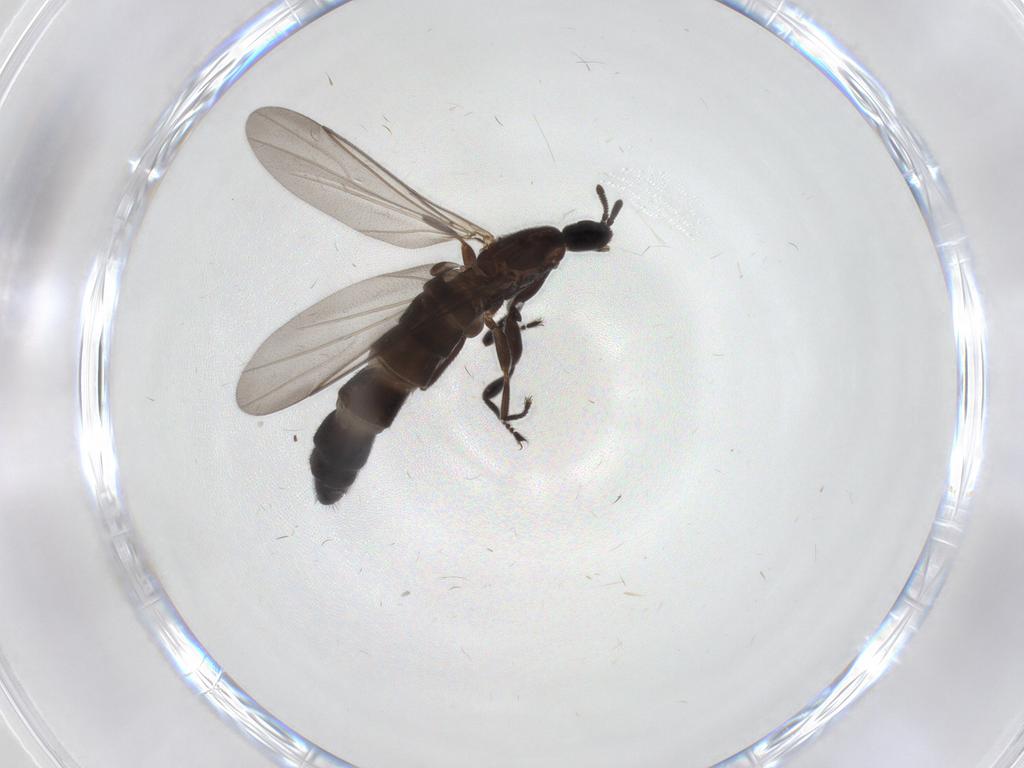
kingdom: Animalia
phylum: Arthropoda
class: Insecta
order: Diptera
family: Scatopsidae
